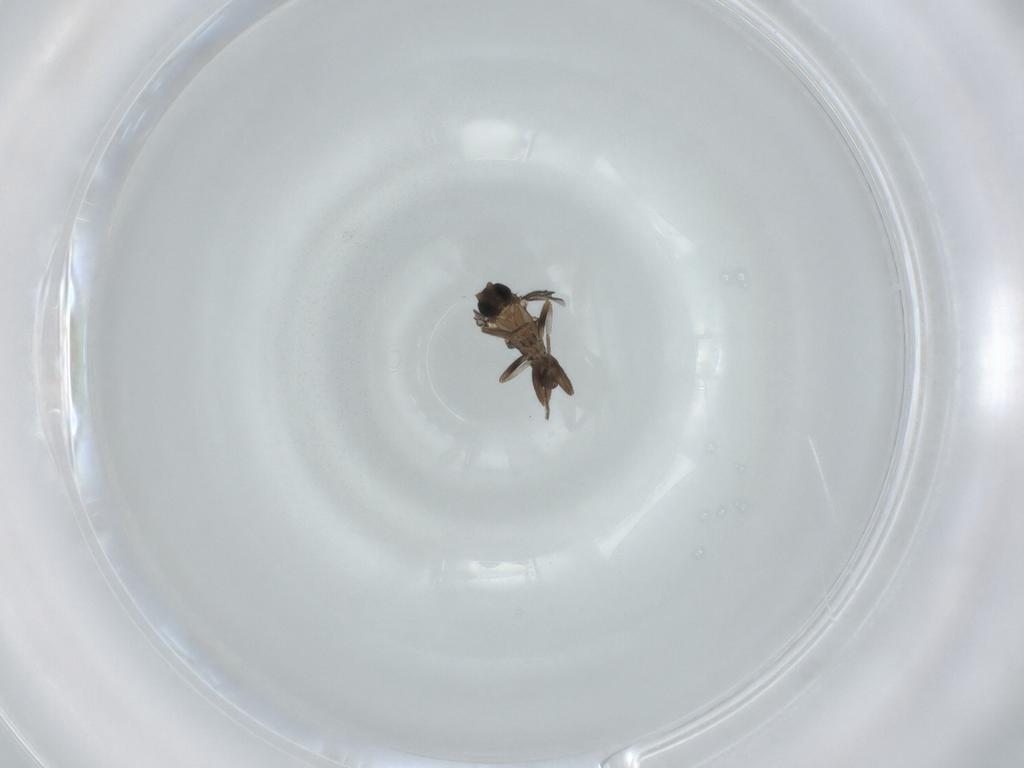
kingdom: Animalia
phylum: Arthropoda
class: Insecta
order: Diptera
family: Phoridae
